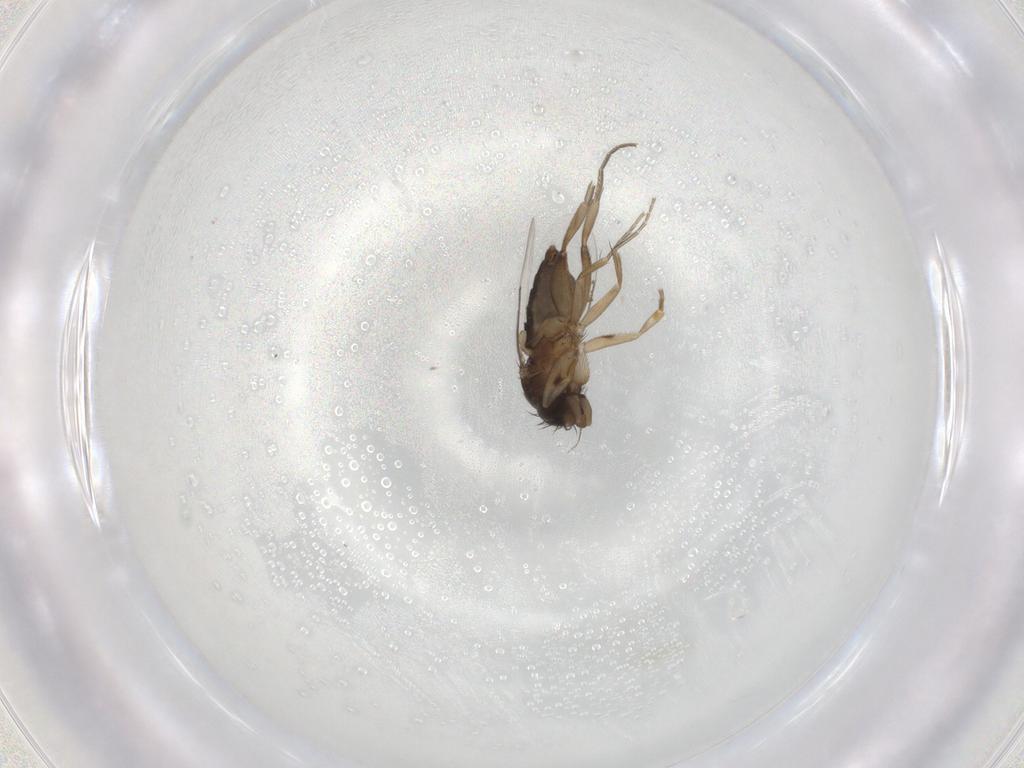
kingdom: Animalia
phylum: Arthropoda
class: Insecta
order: Diptera
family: Phoridae
